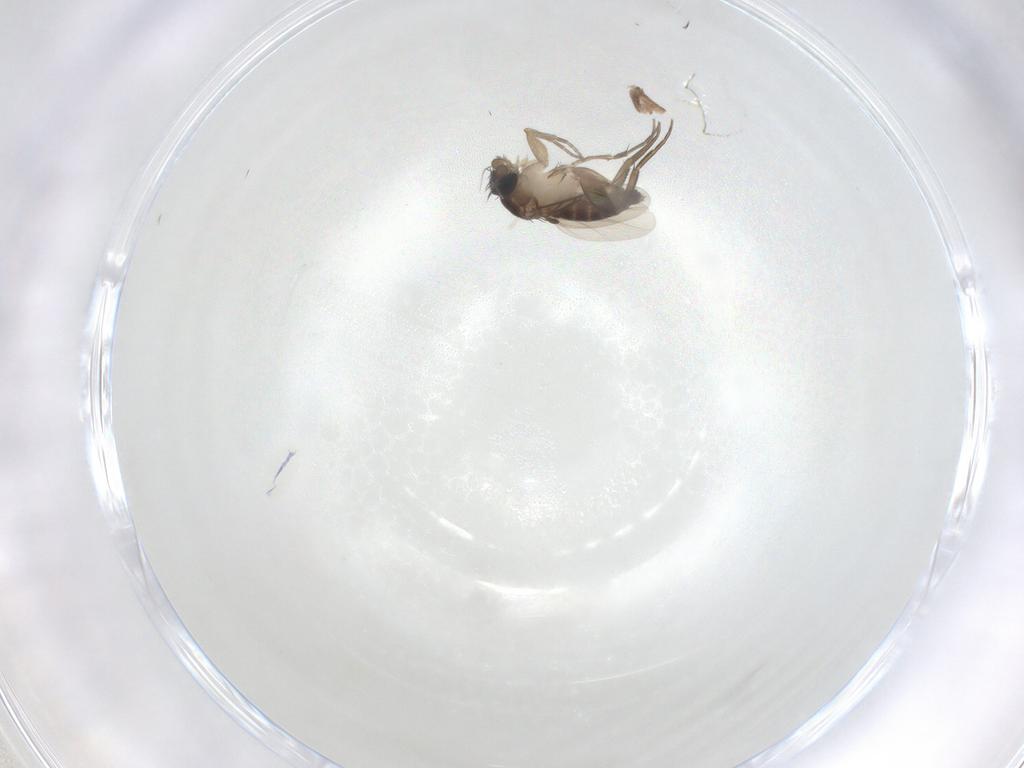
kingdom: Animalia
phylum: Arthropoda
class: Insecta
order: Diptera
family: Phoridae
